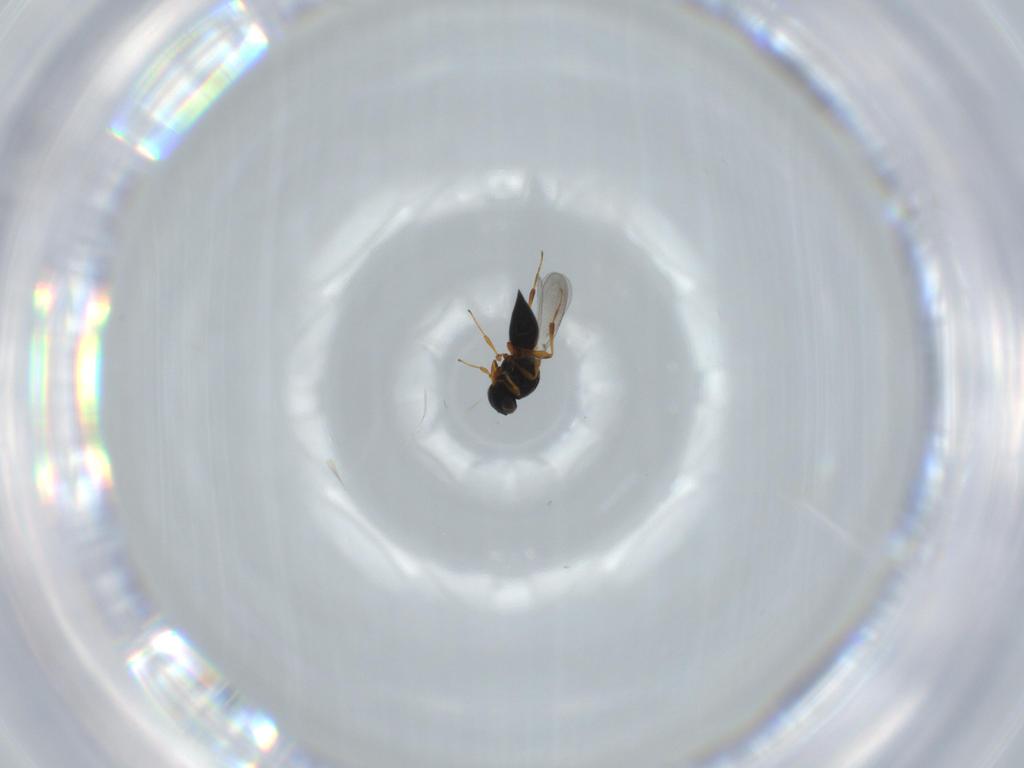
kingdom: Animalia
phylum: Arthropoda
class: Insecta
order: Hymenoptera
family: Platygastridae
